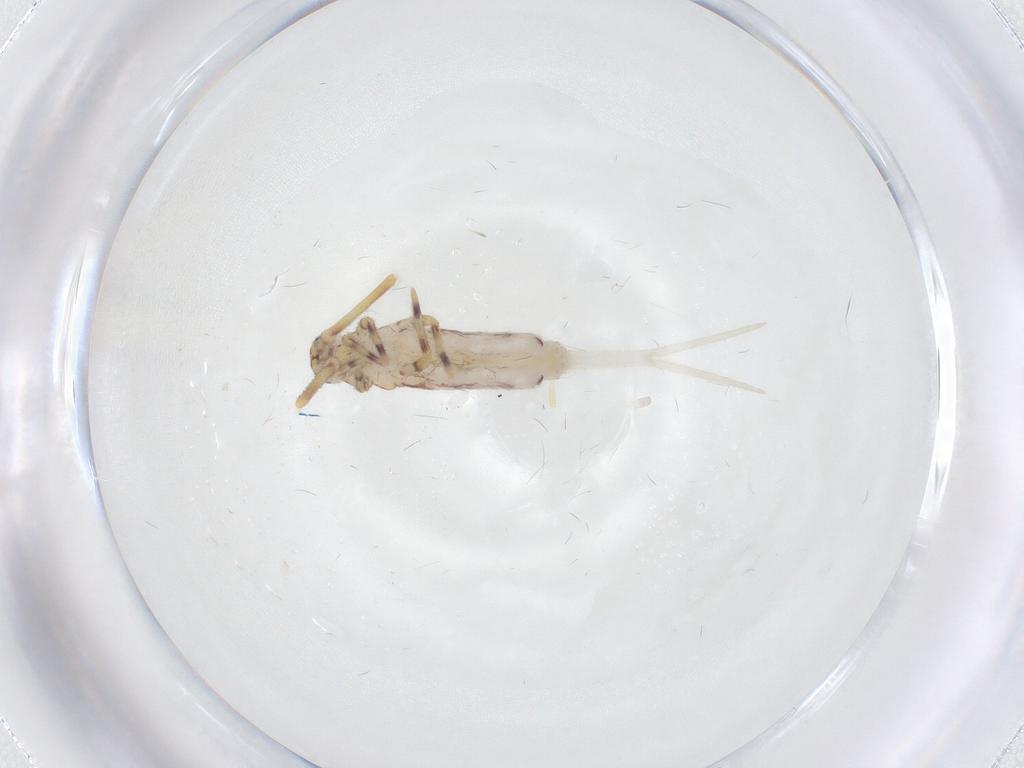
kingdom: Animalia
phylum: Arthropoda
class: Collembola
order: Entomobryomorpha
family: Entomobryidae
